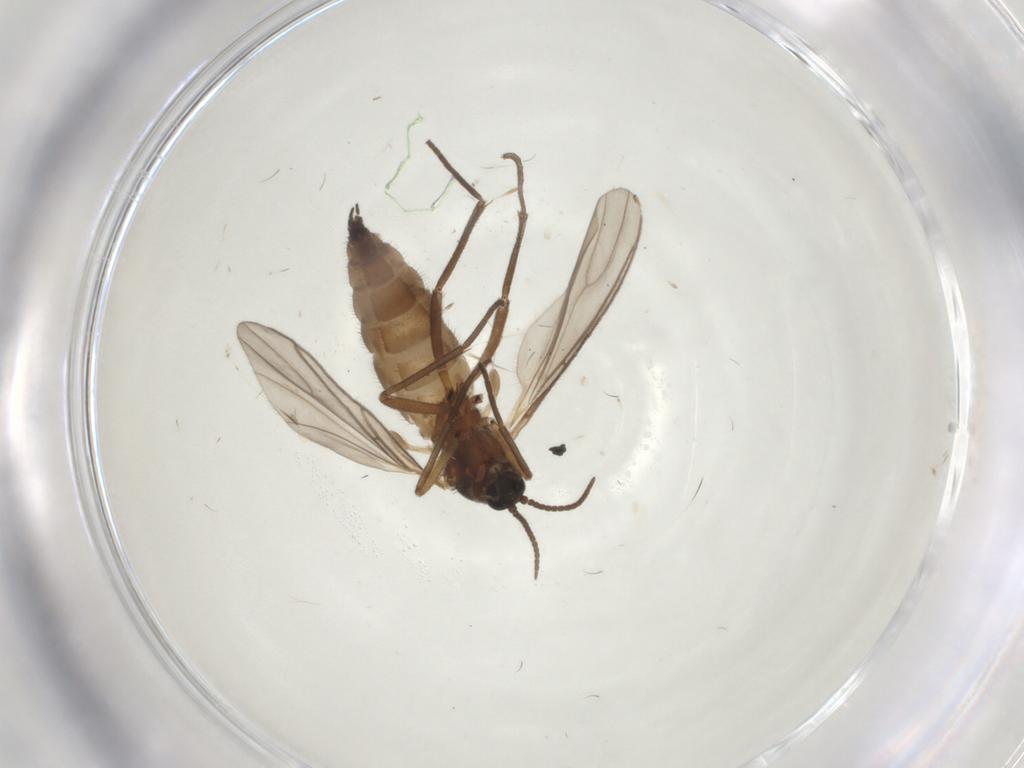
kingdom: Animalia
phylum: Arthropoda
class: Insecta
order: Diptera
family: Sciaridae
